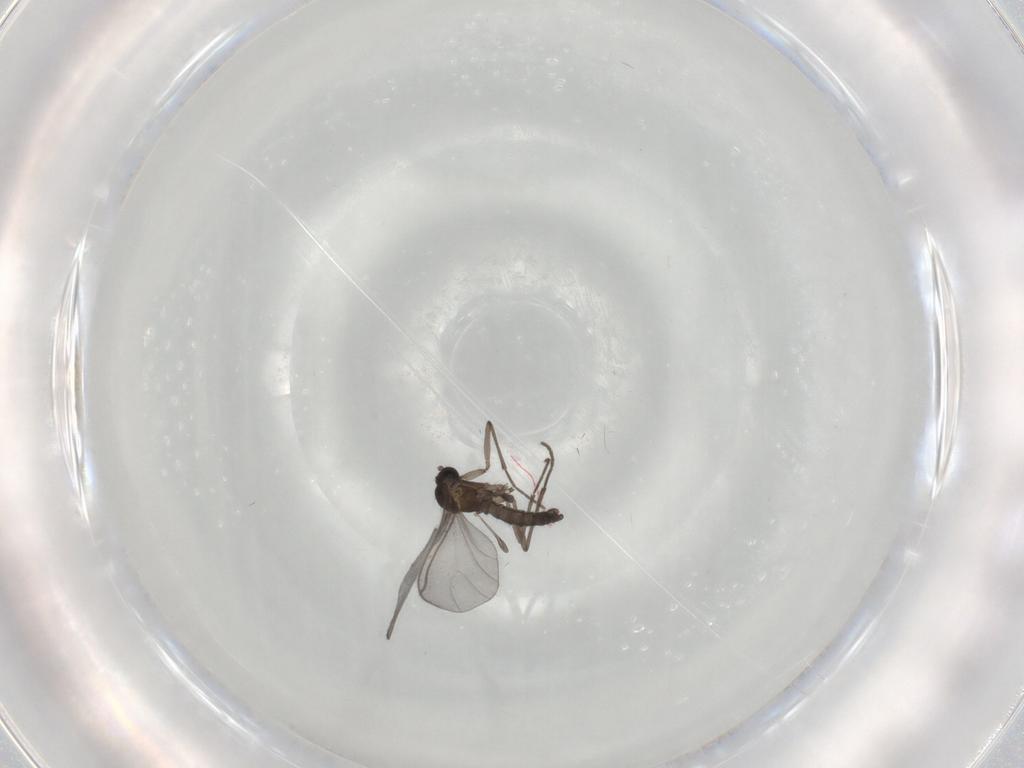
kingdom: Animalia
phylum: Arthropoda
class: Insecta
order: Diptera
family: Sciaridae
